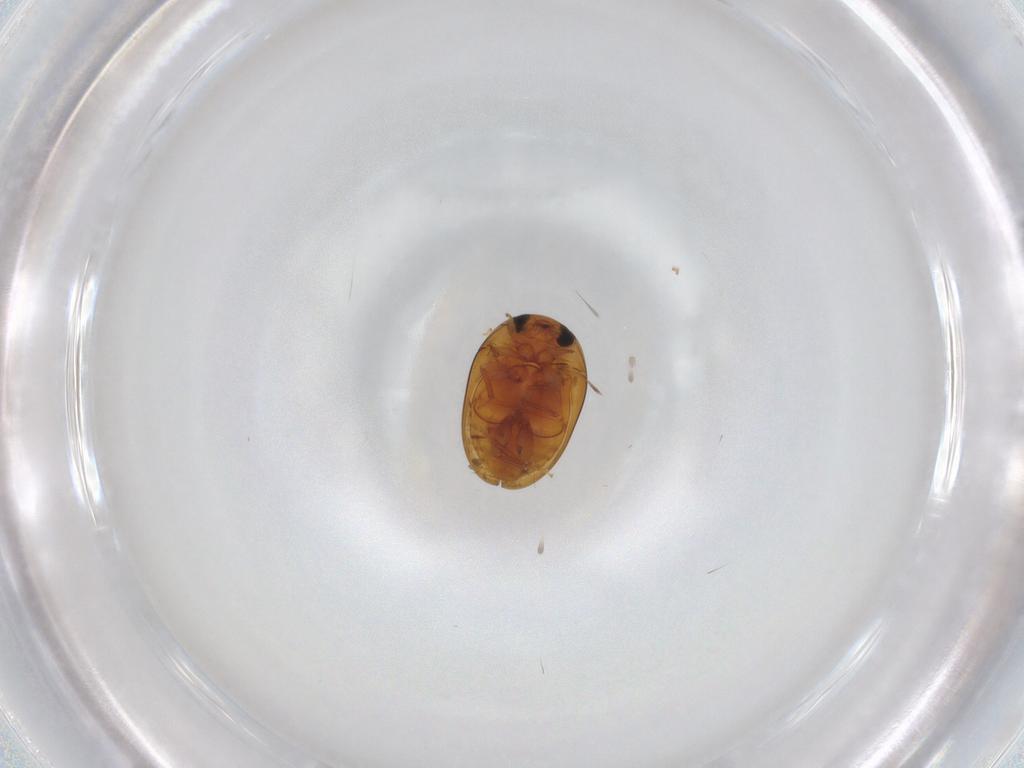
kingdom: Animalia
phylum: Arthropoda
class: Insecta
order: Coleoptera
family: Phalacridae
